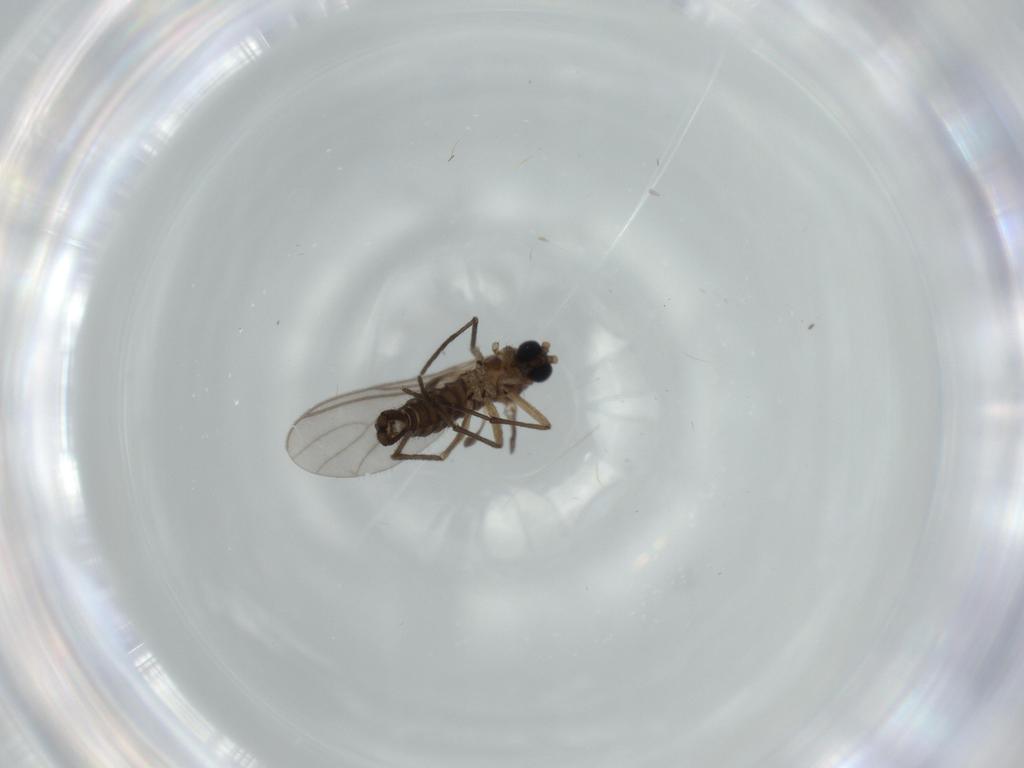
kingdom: Animalia
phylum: Arthropoda
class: Insecta
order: Diptera
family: Sciaridae
